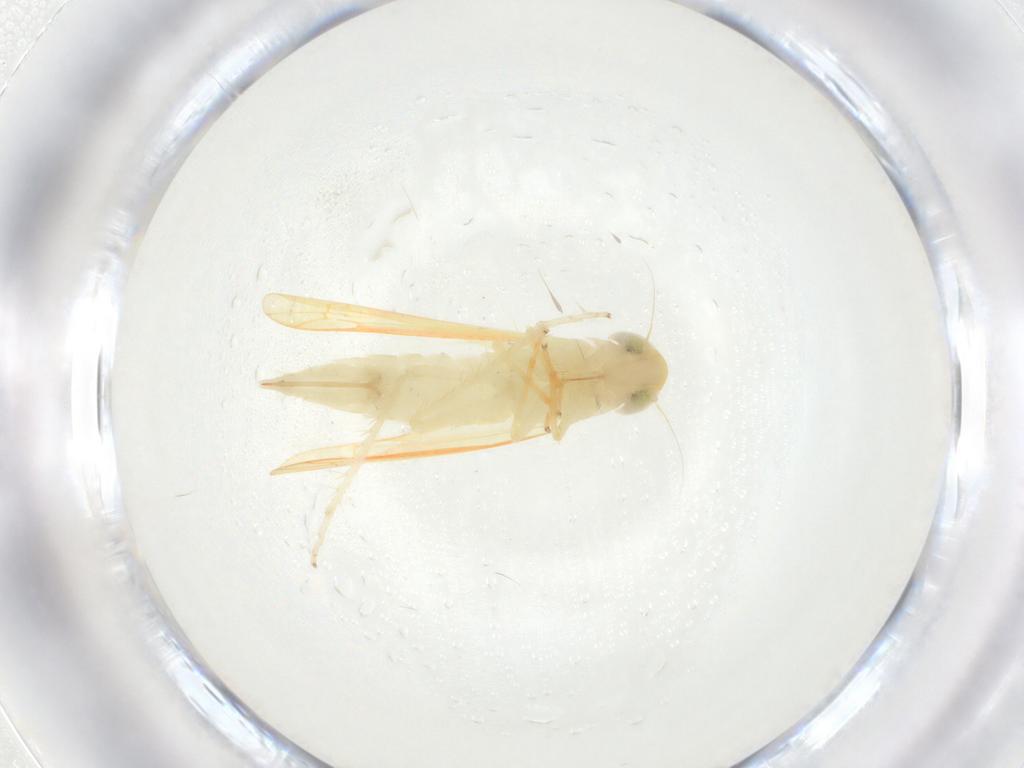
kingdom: Animalia
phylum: Arthropoda
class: Insecta
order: Hemiptera
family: Cicadellidae
